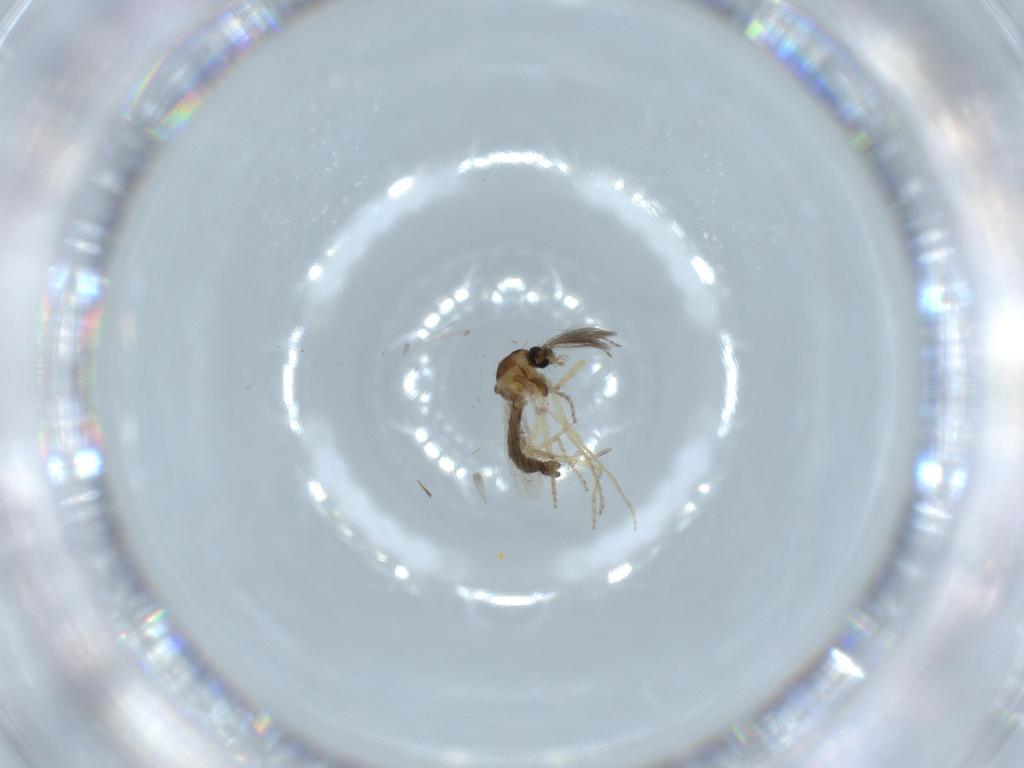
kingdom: Animalia
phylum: Arthropoda
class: Insecta
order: Diptera
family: Ceratopogonidae
